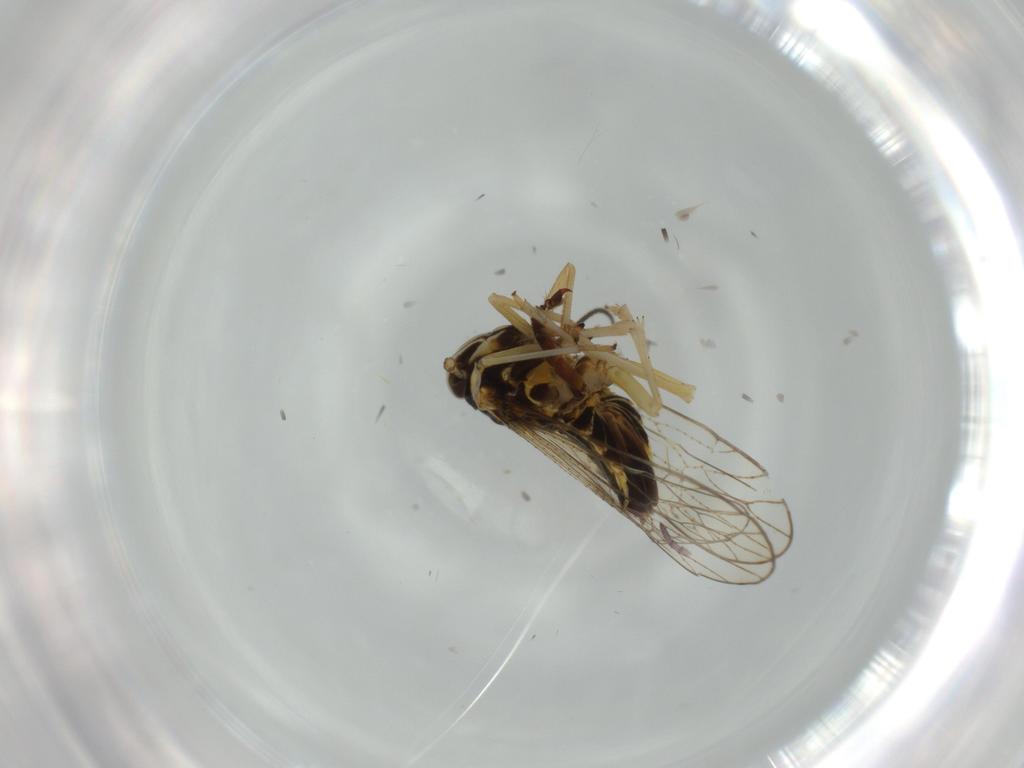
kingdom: Animalia
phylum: Arthropoda
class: Insecta
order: Hemiptera
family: Cicadellidae
